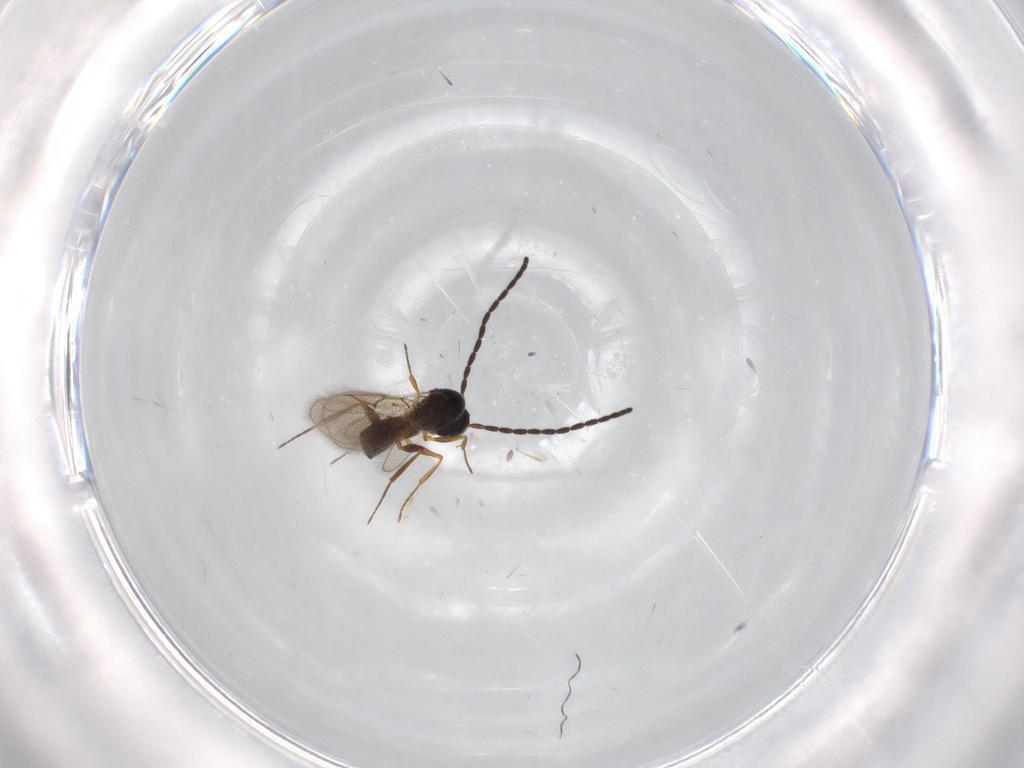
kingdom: Animalia
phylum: Arthropoda
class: Insecta
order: Hymenoptera
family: Figitidae
